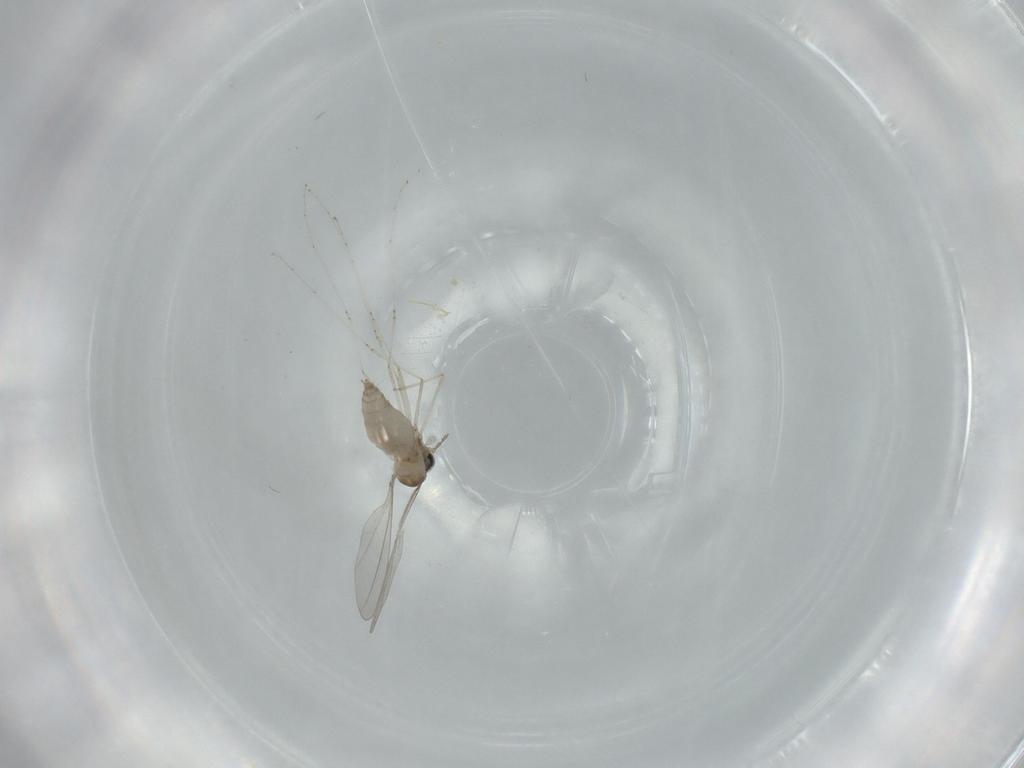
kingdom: Animalia
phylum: Arthropoda
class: Insecta
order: Diptera
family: Cecidomyiidae
